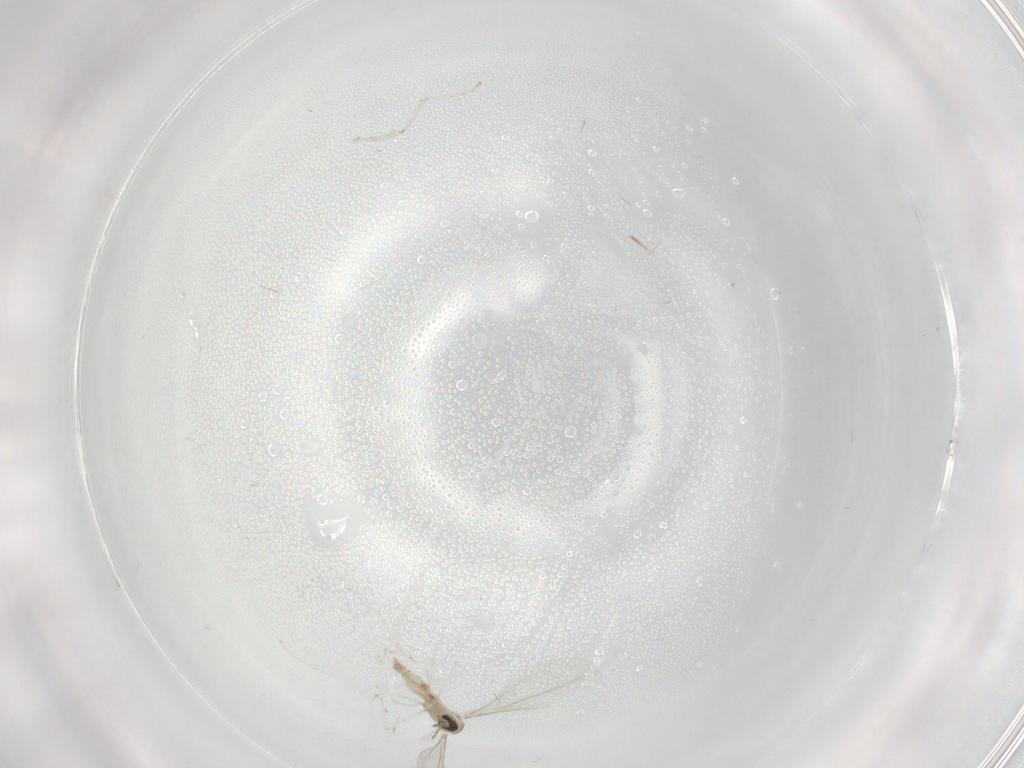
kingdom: Animalia
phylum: Arthropoda
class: Insecta
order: Diptera
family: Cecidomyiidae
